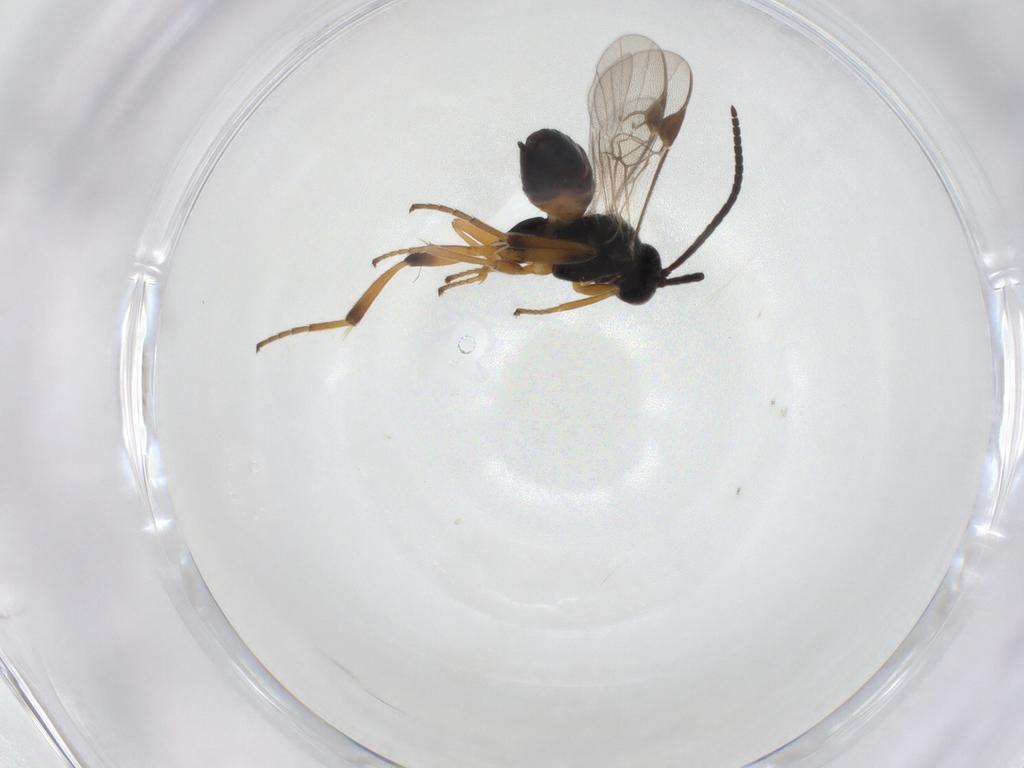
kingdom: Animalia
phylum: Arthropoda
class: Insecta
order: Hymenoptera
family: Braconidae
